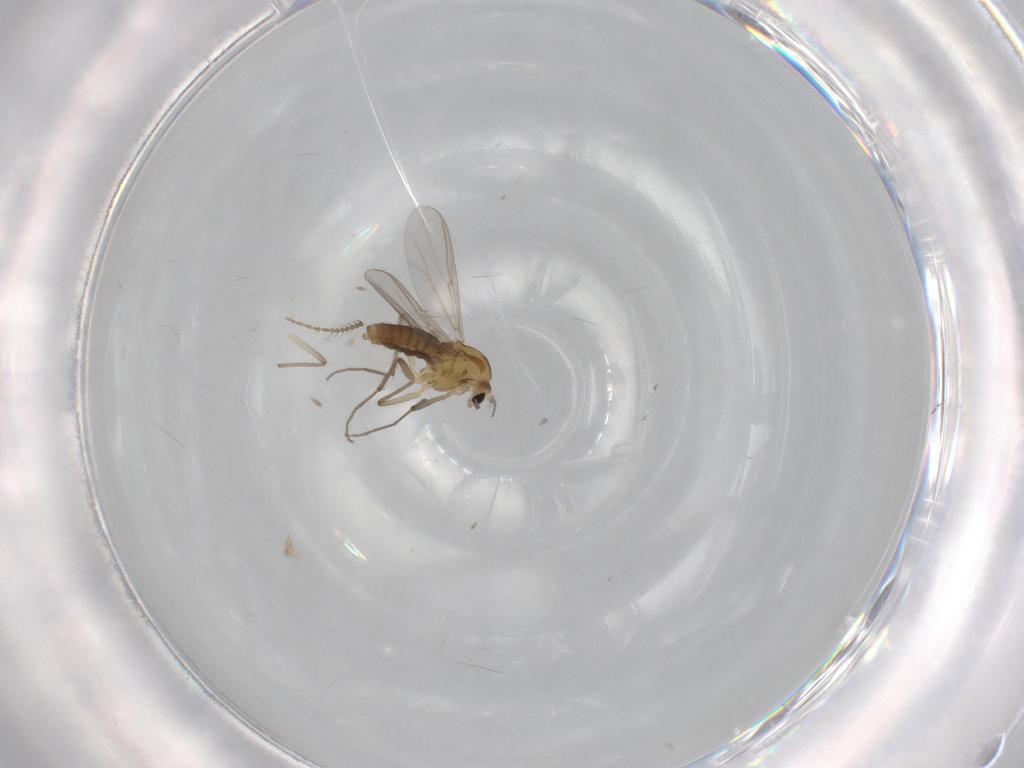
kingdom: Animalia
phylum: Arthropoda
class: Insecta
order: Diptera
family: Chironomidae
